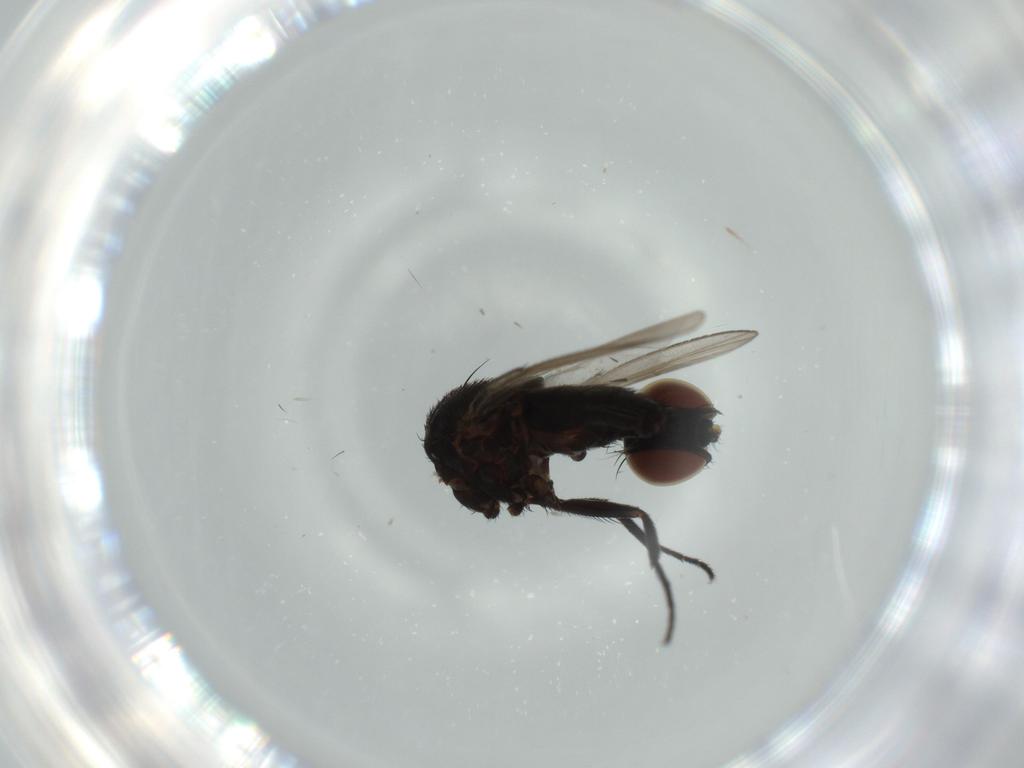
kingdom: Animalia
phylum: Arthropoda
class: Insecta
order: Diptera
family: Milichiidae
